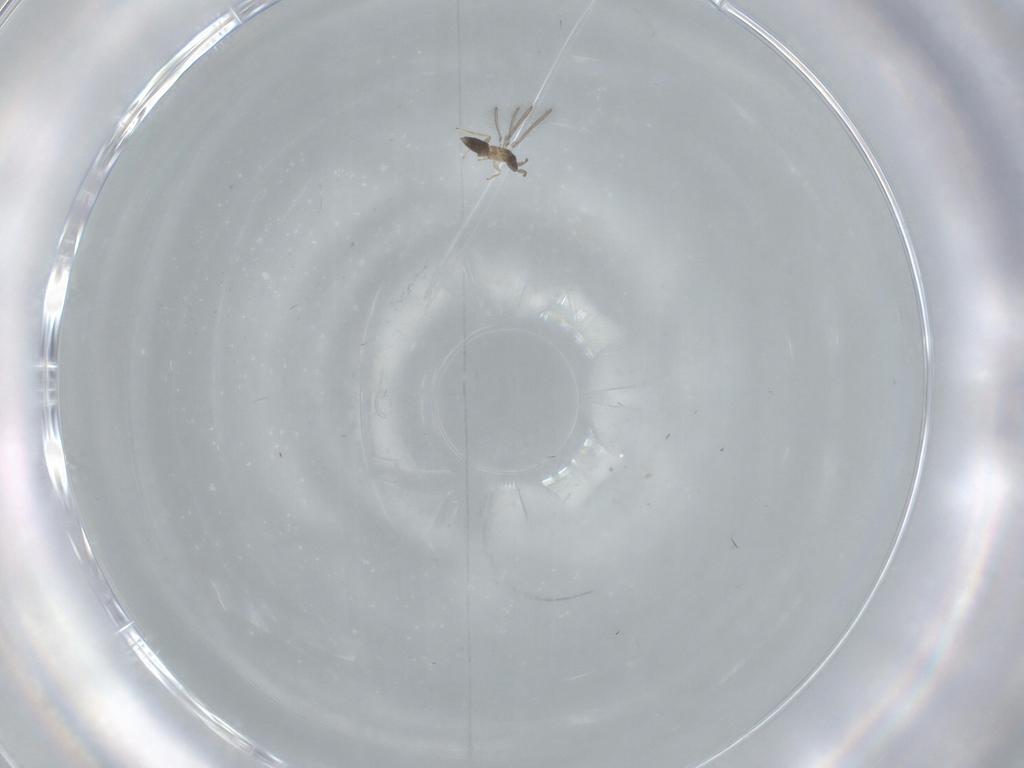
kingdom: Animalia
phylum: Arthropoda
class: Insecta
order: Hymenoptera
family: Mymaridae
